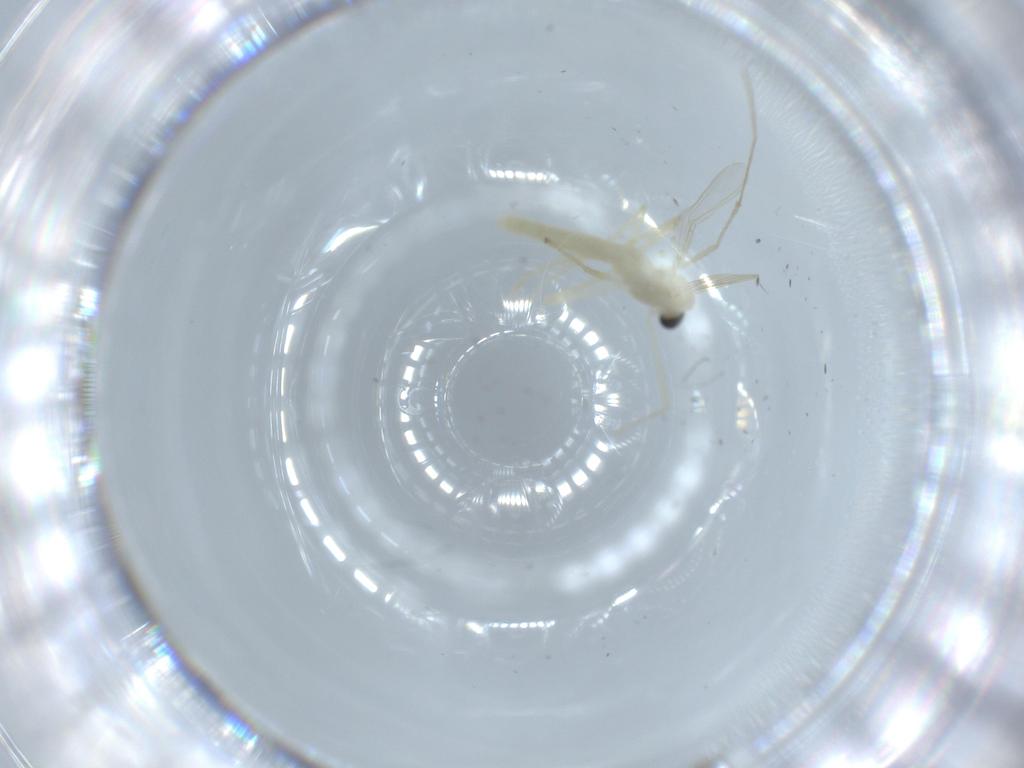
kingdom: Animalia
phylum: Arthropoda
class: Insecta
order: Diptera
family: Chironomidae
